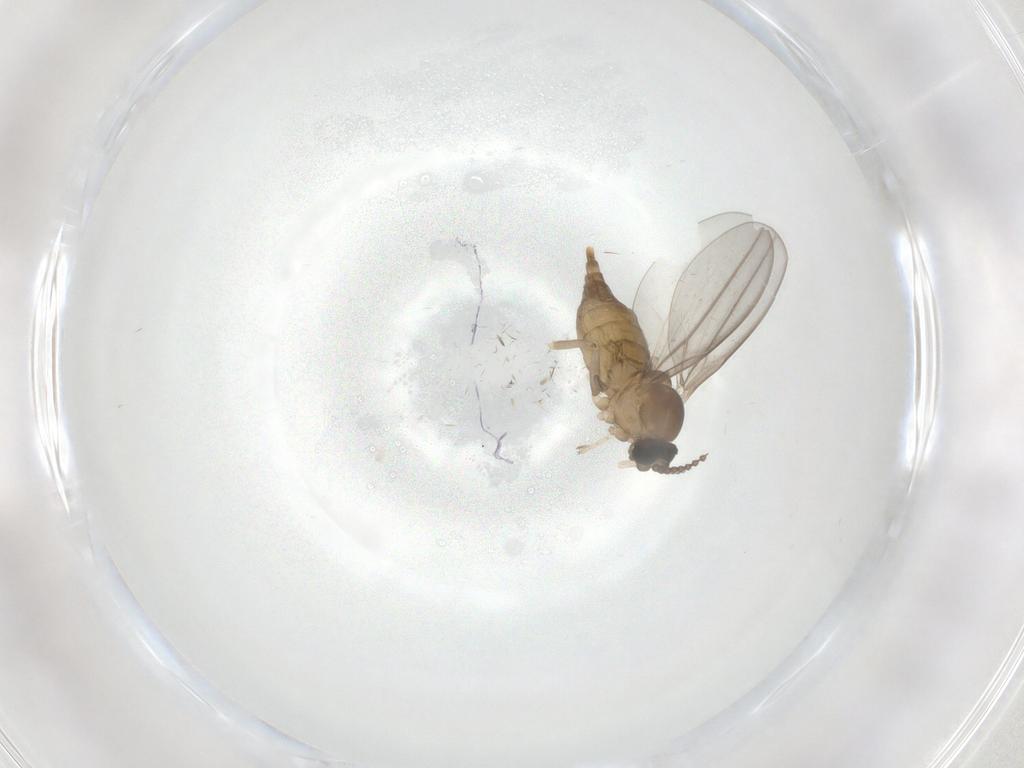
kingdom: Animalia
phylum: Arthropoda
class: Insecta
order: Diptera
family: Cecidomyiidae
